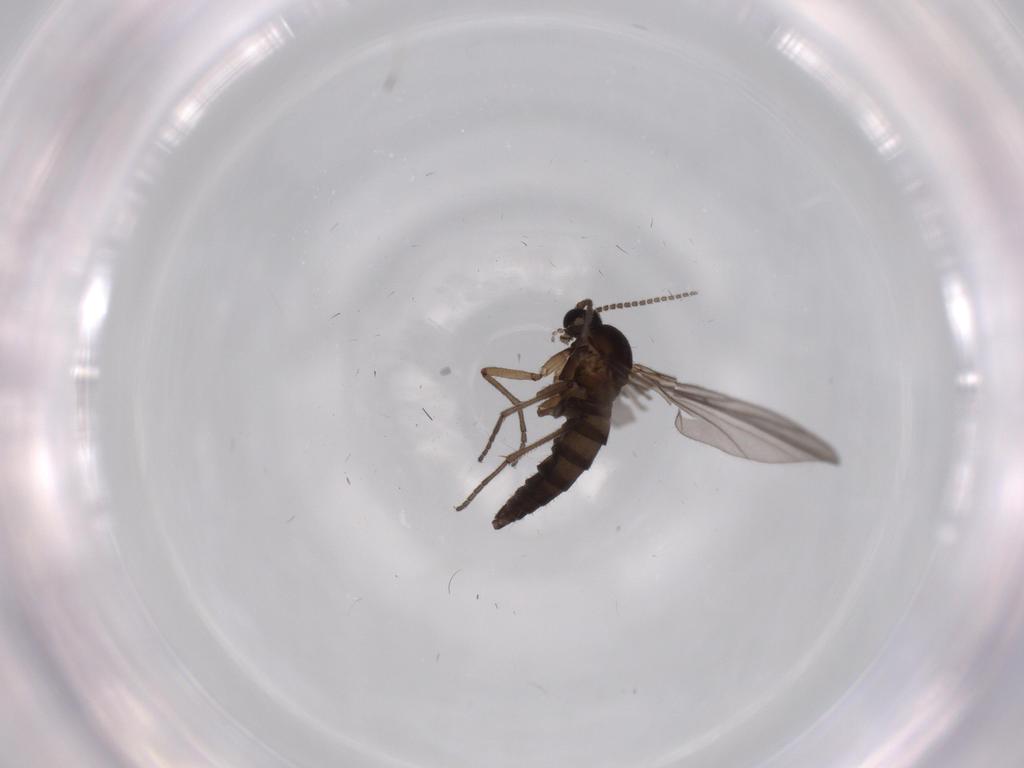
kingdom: Animalia
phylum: Arthropoda
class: Insecta
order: Diptera
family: Sciaridae
